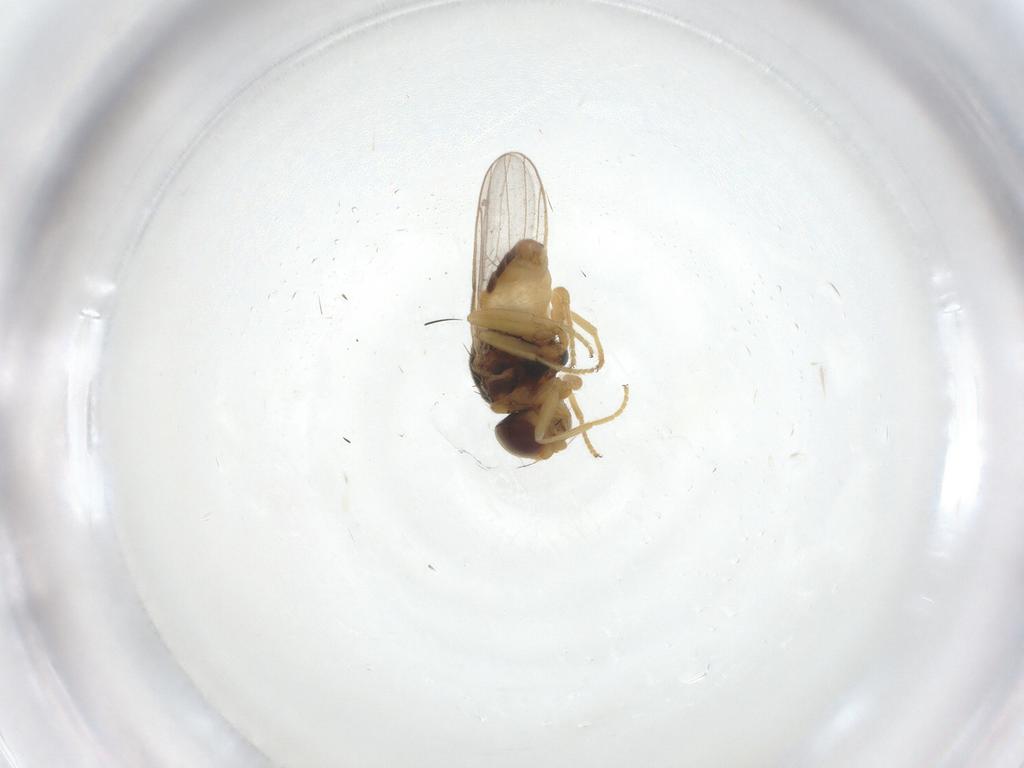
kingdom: Animalia
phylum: Arthropoda
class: Insecta
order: Diptera
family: Chloropidae
